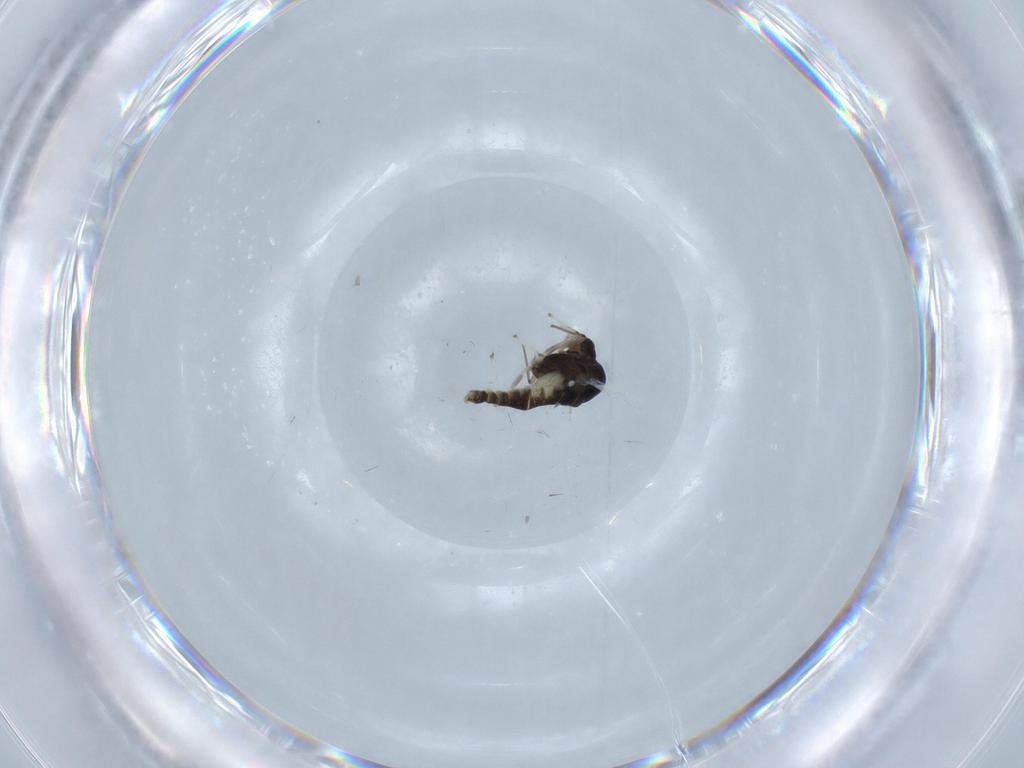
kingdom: Animalia
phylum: Arthropoda
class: Insecta
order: Diptera
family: Chironomidae
